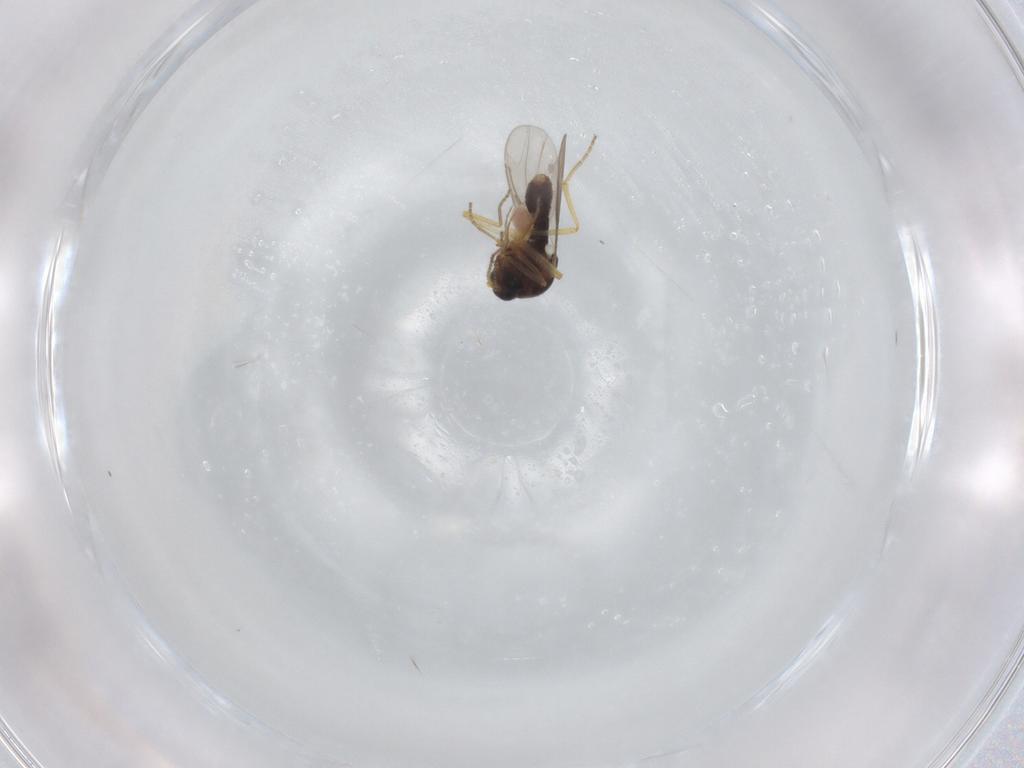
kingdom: Animalia
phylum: Arthropoda
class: Insecta
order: Diptera
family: Ceratopogonidae
